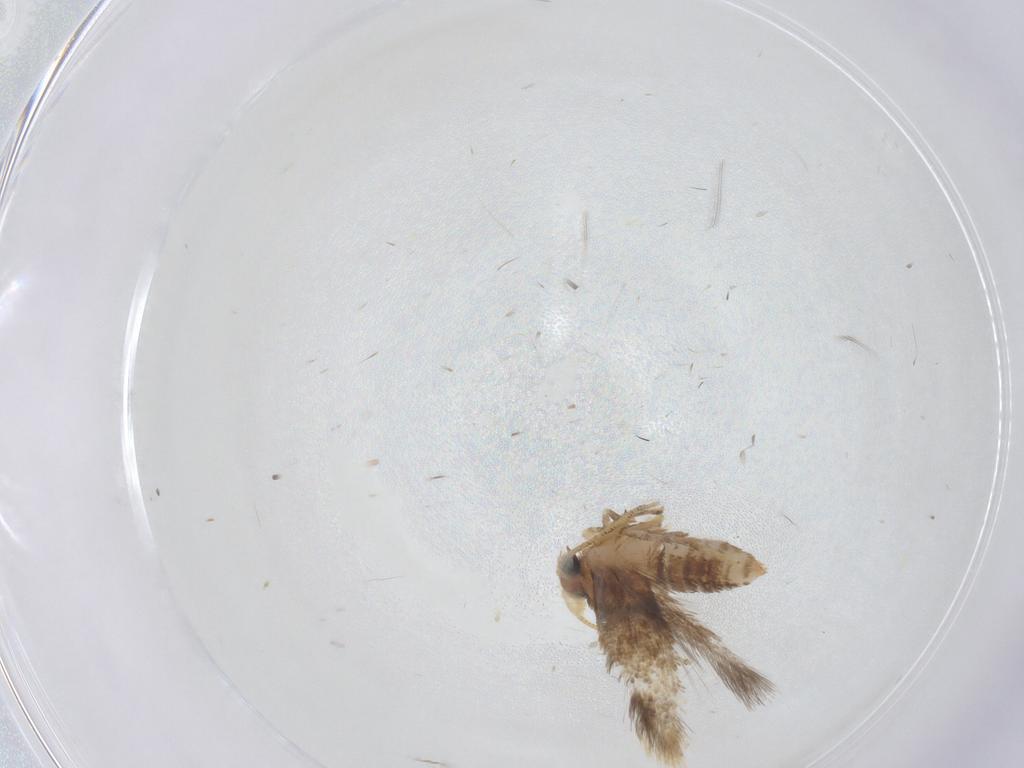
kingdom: Animalia
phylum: Arthropoda
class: Insecta
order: Lepidoptera
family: Nepticulidae
